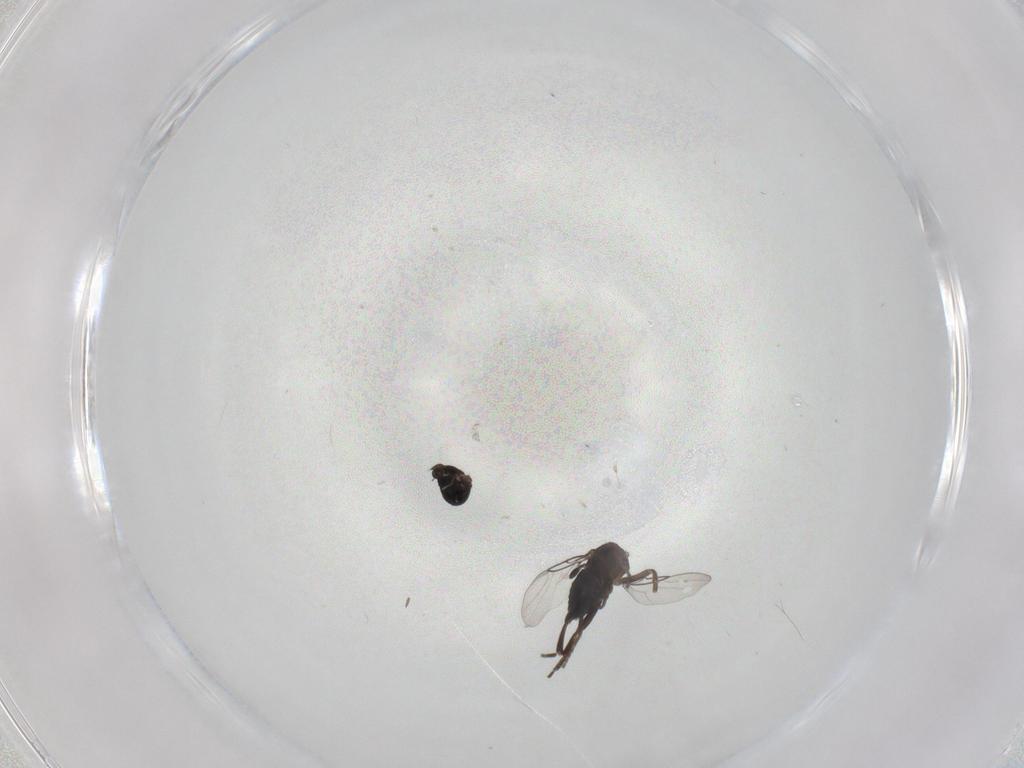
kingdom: Animalia
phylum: Arthropoda
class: Insecta
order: Diptera
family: Phoridae
